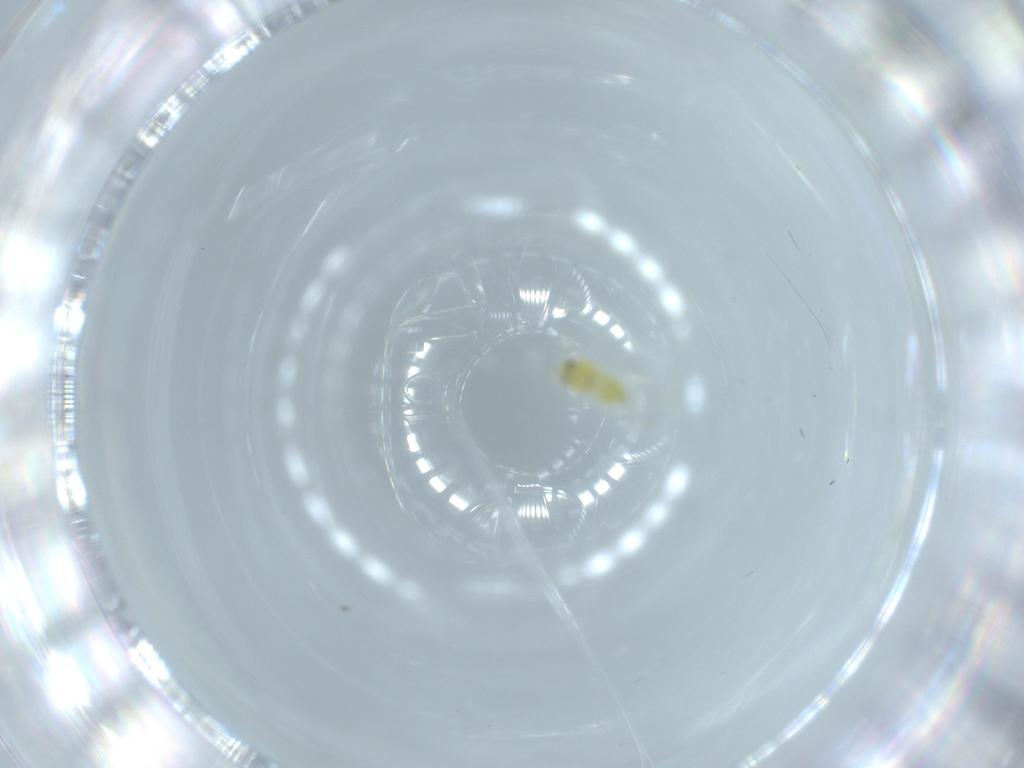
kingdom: Animalia
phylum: Arthropoda
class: Insecta
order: Hemiptera
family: Aleyrodidae
